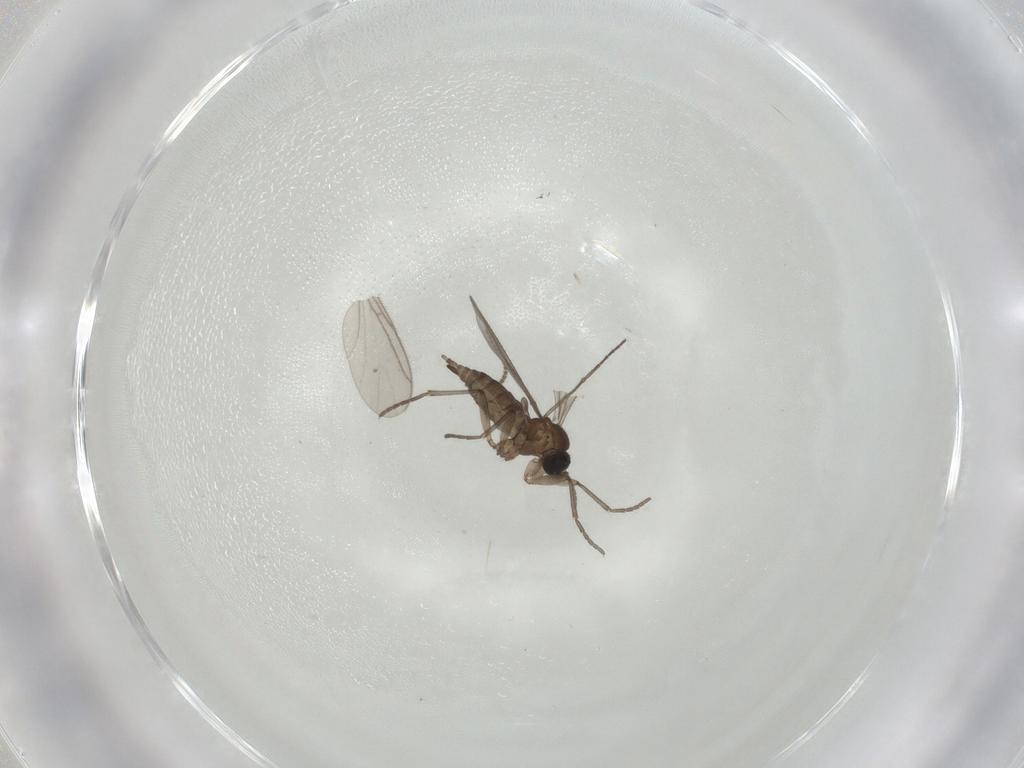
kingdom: Animalia
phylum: Arthropoda
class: Insecta
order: Diptera
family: Sciaridae
